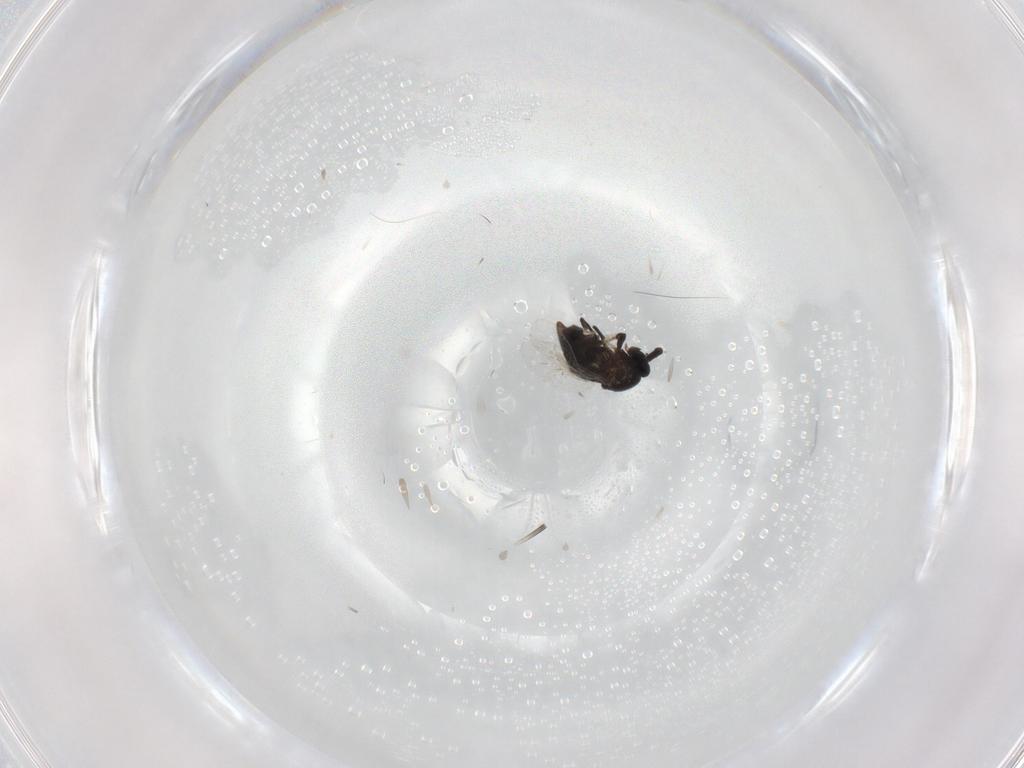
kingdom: Animalia
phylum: Arthropoda
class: Insecta
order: Diptera
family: Scatopsidae
